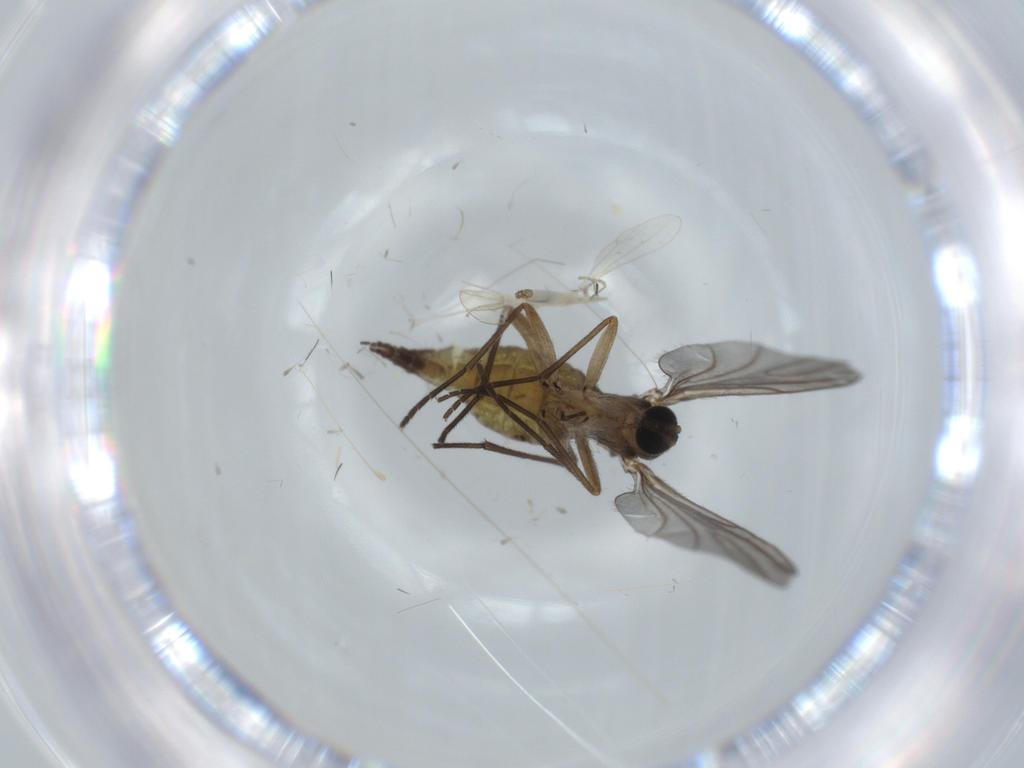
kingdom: Animalia
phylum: Arthropoda
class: Insecta
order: Diptera
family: Sciaridae
